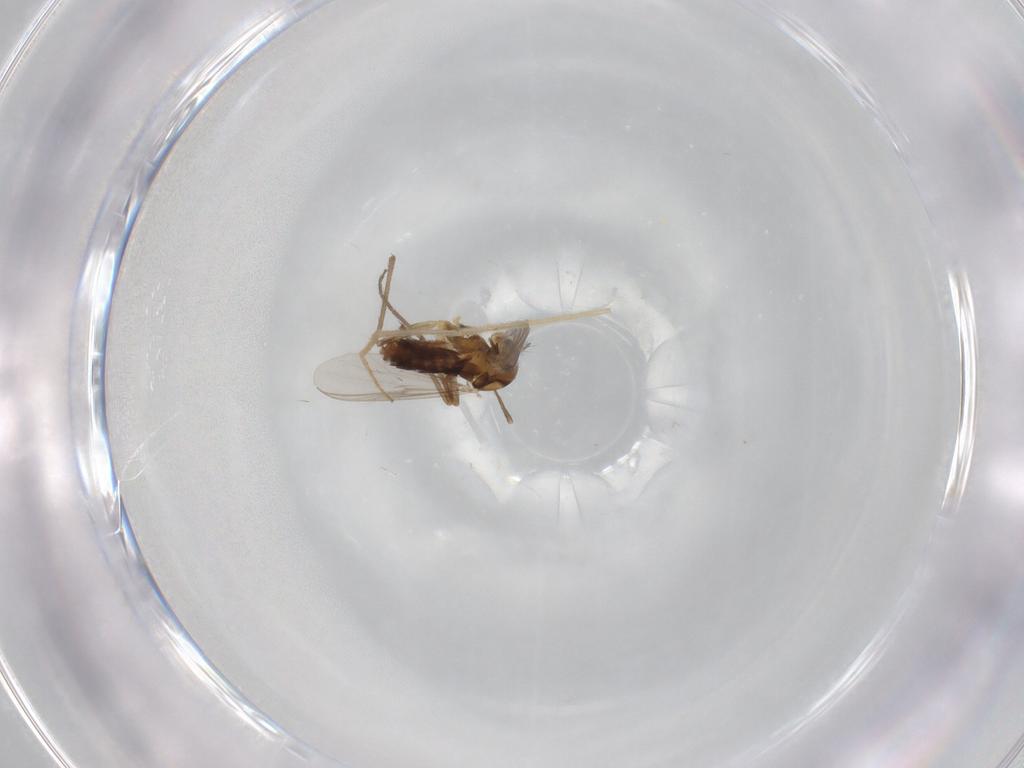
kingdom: Animalia
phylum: Arthropoda
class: Insecta
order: Diptera
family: Chironomidae
